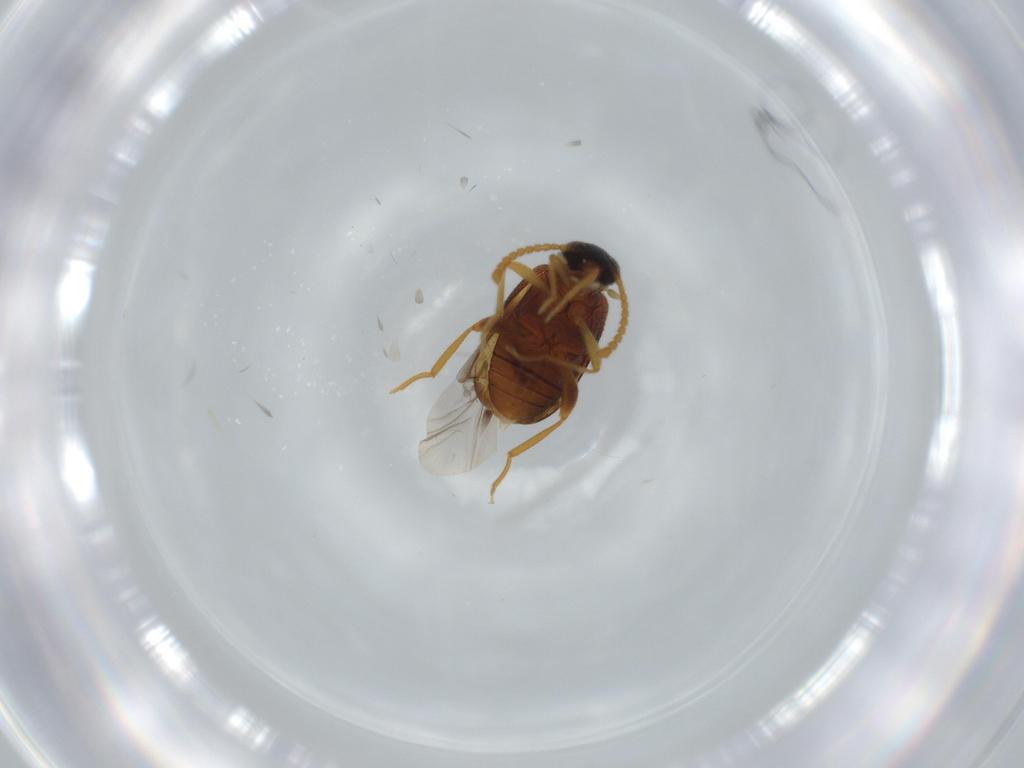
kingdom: Animalia
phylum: Arthropoda
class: Insecta
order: Coleoptera
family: Aderidae
